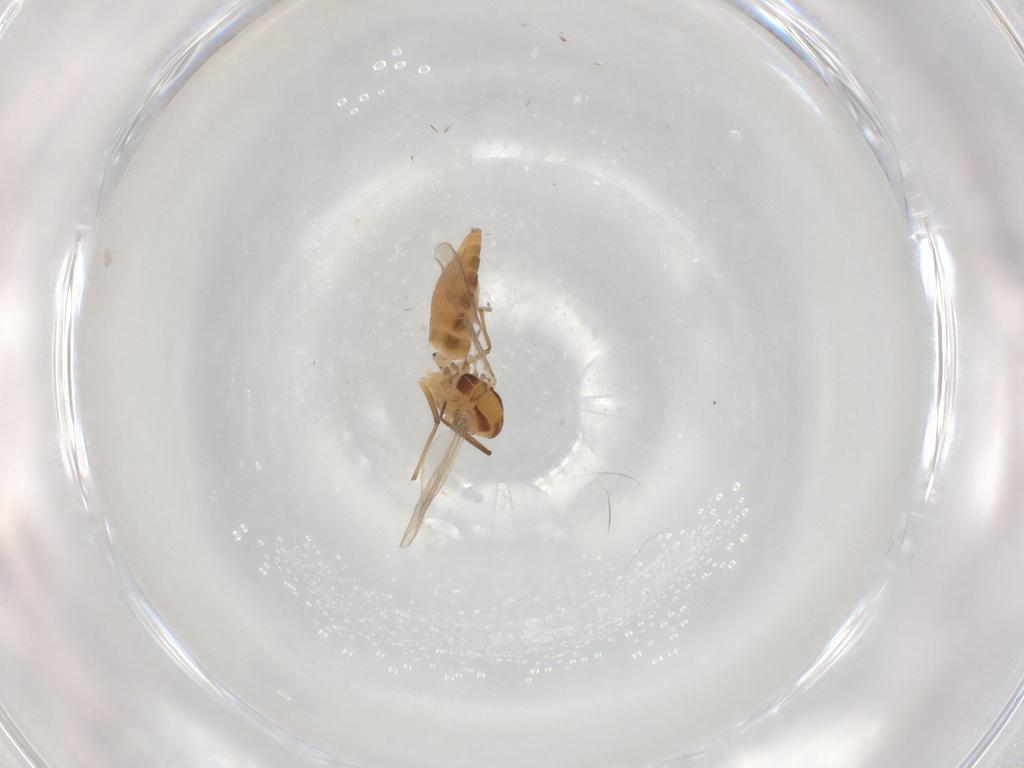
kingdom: Animalia
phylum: Arthropoda
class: Insecta
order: Diptera
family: Chironomidae
